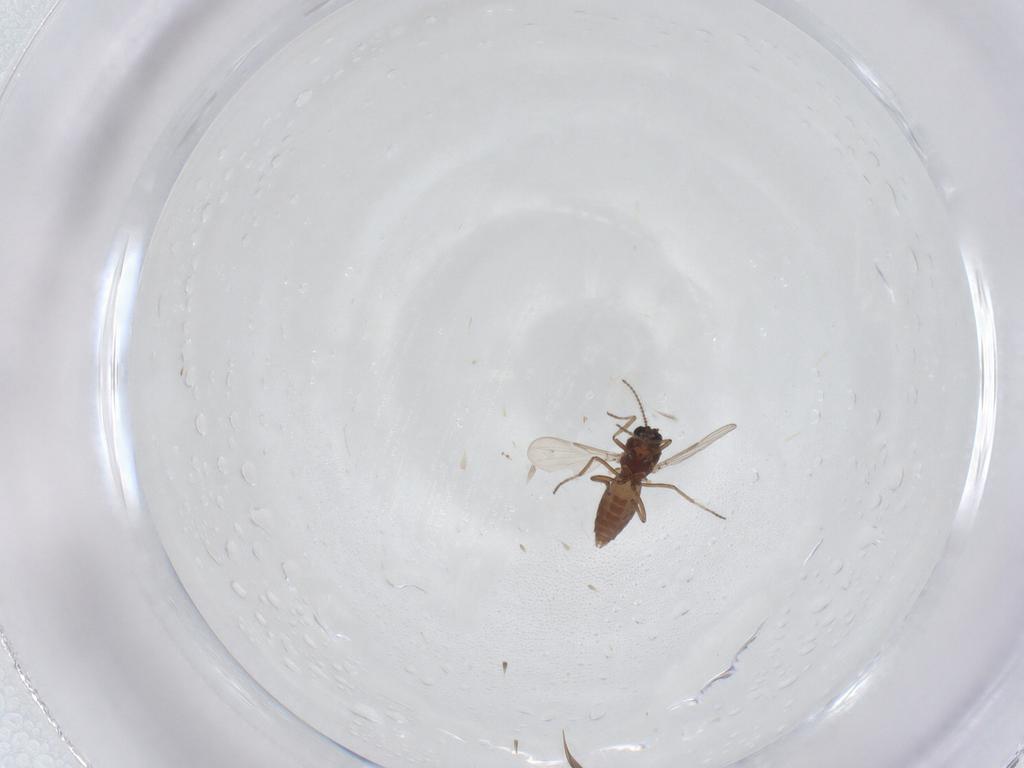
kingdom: Animalia
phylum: Arthropoda
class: Insecta
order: Diptera
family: Ceratopogonidae
